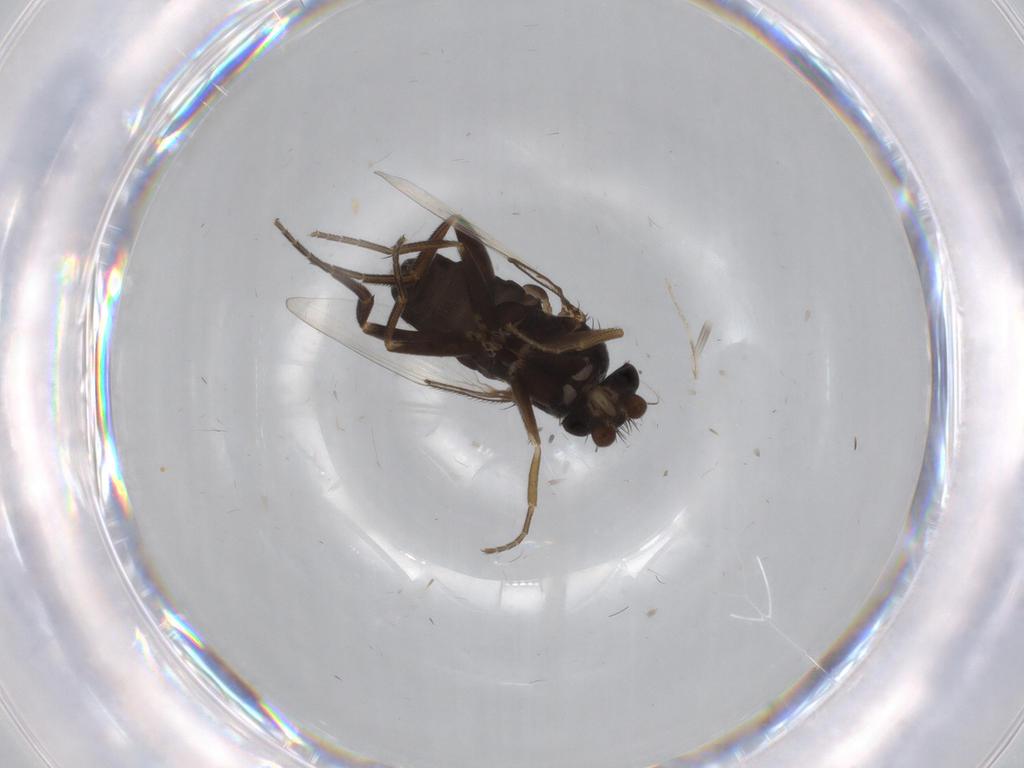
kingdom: Animalia
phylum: Arthropoda
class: Insecta
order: Diptera
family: Phoridae
